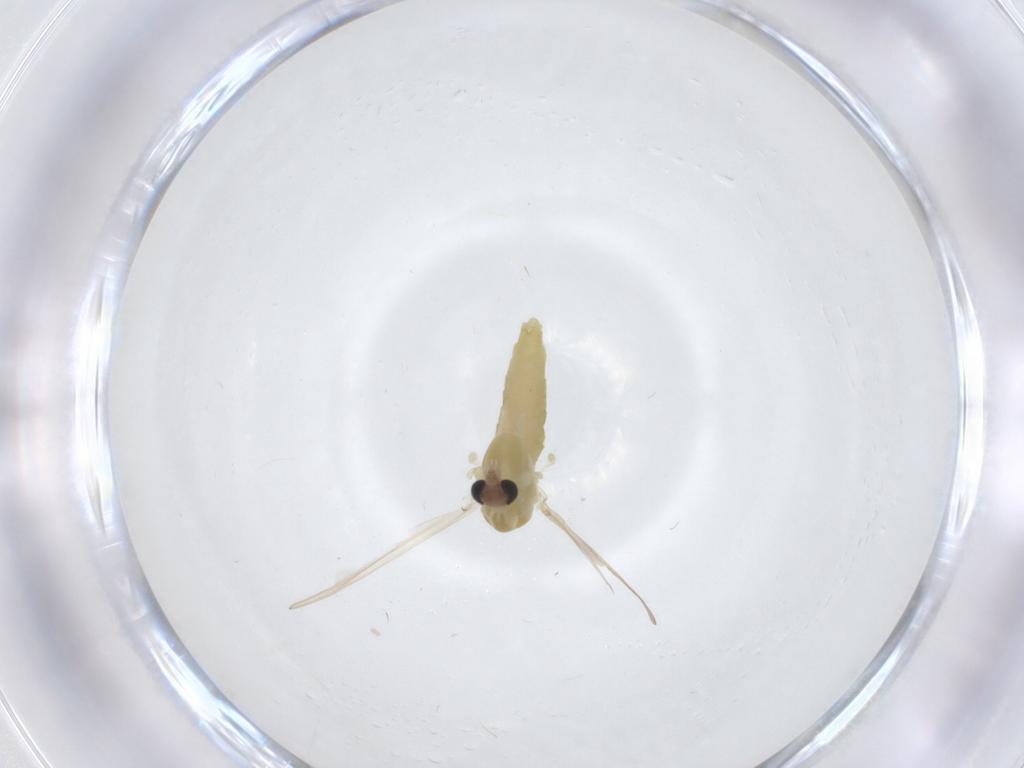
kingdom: Animalia
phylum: Arthropoda
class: Insecta
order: Diptera
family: Chironomidae
